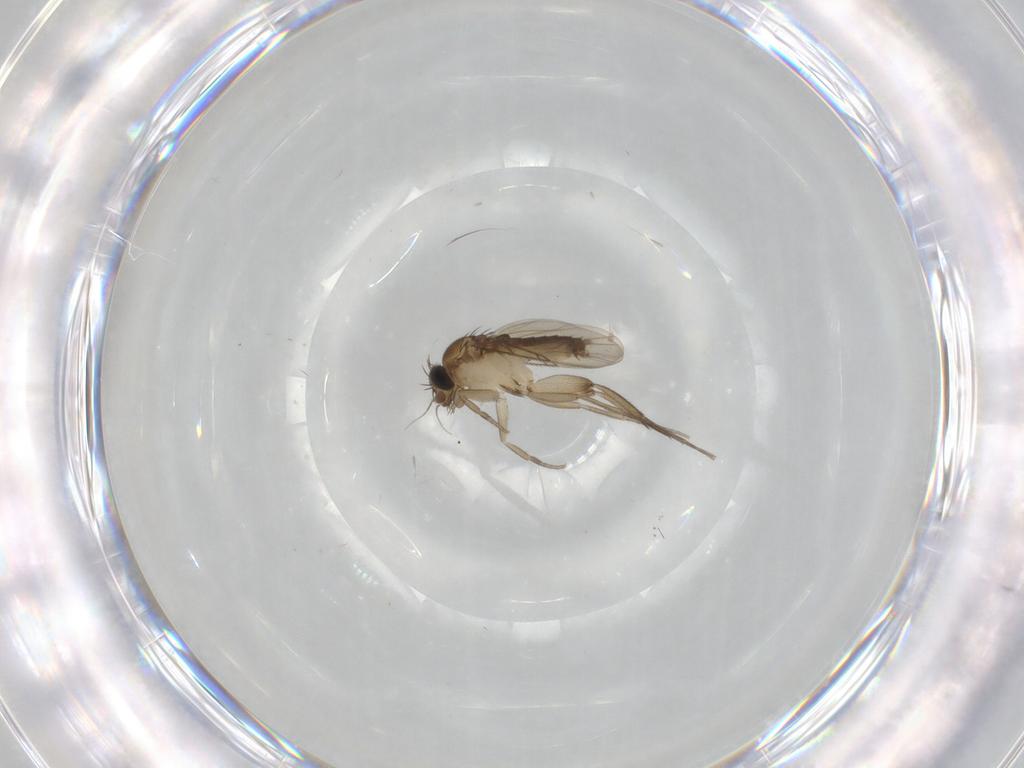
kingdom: Animalia
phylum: Arthropoda
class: Insecta
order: Diptera
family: Phoridae
